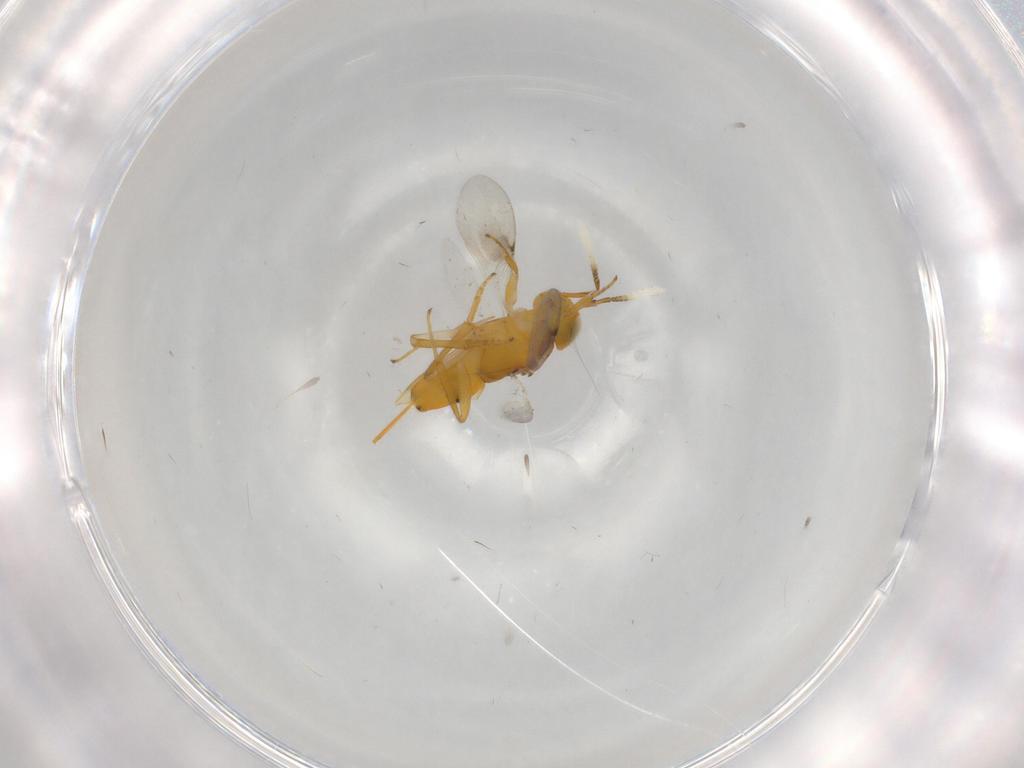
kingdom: Animalia
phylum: Arthropoda
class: Insecta
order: Hymenoptera
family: Encyrtidae
